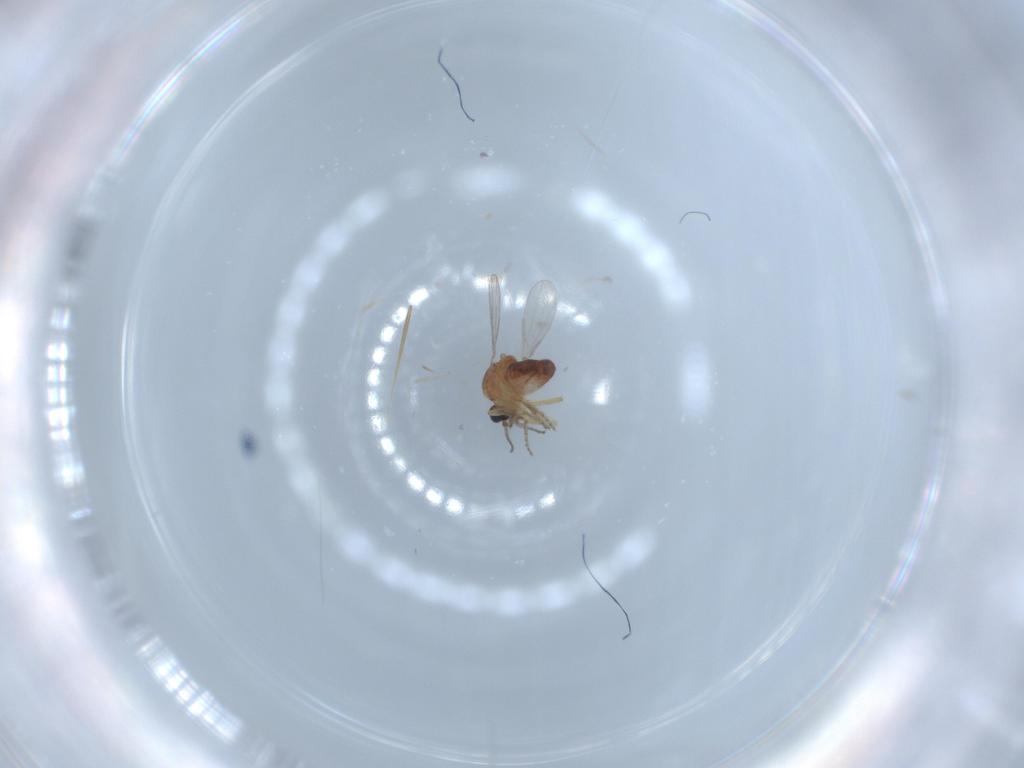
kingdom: Animalia
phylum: Arthropoda
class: Insecta
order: Diptera
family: Ceratopogonidae
